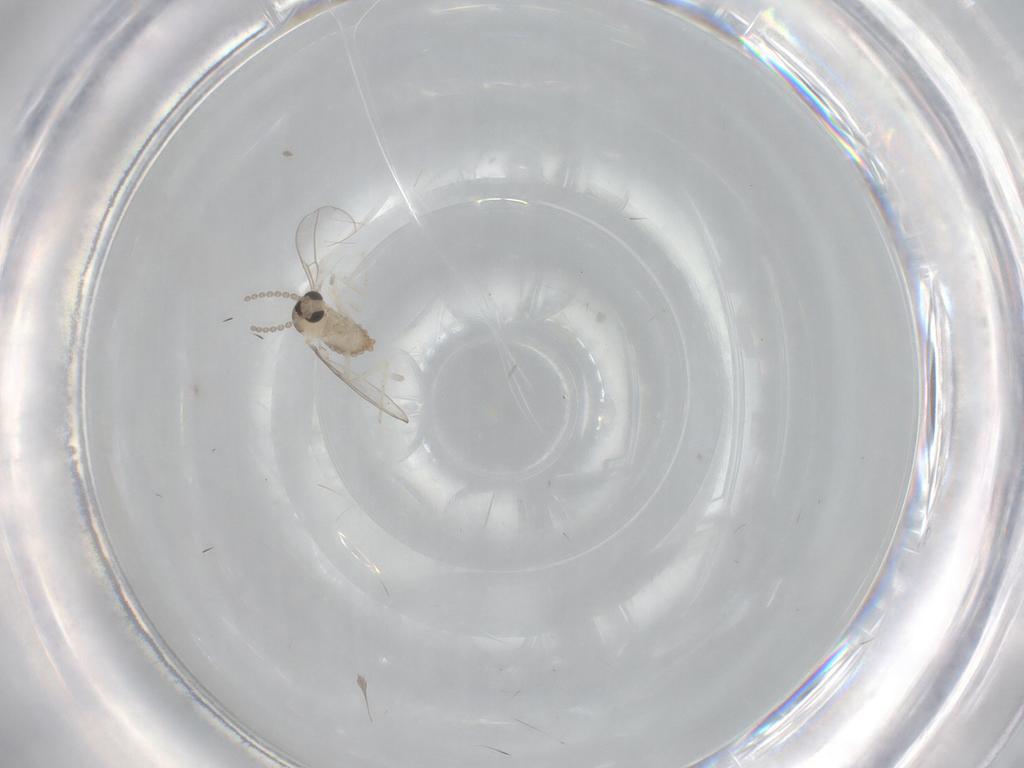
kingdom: Animalia
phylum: Arthropoda
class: Insecta
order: Diptera
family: Cecidomyiidae
